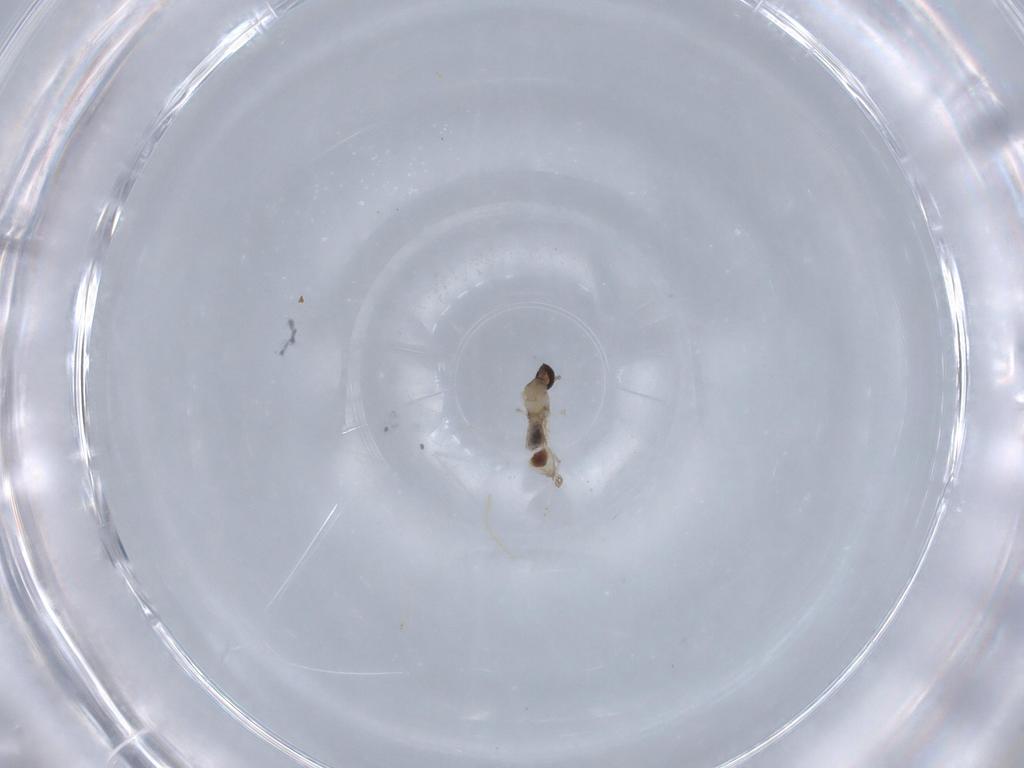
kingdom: Animalia
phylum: Arthropoda
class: Insecta
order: Diptera
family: Cecidomyiidae
